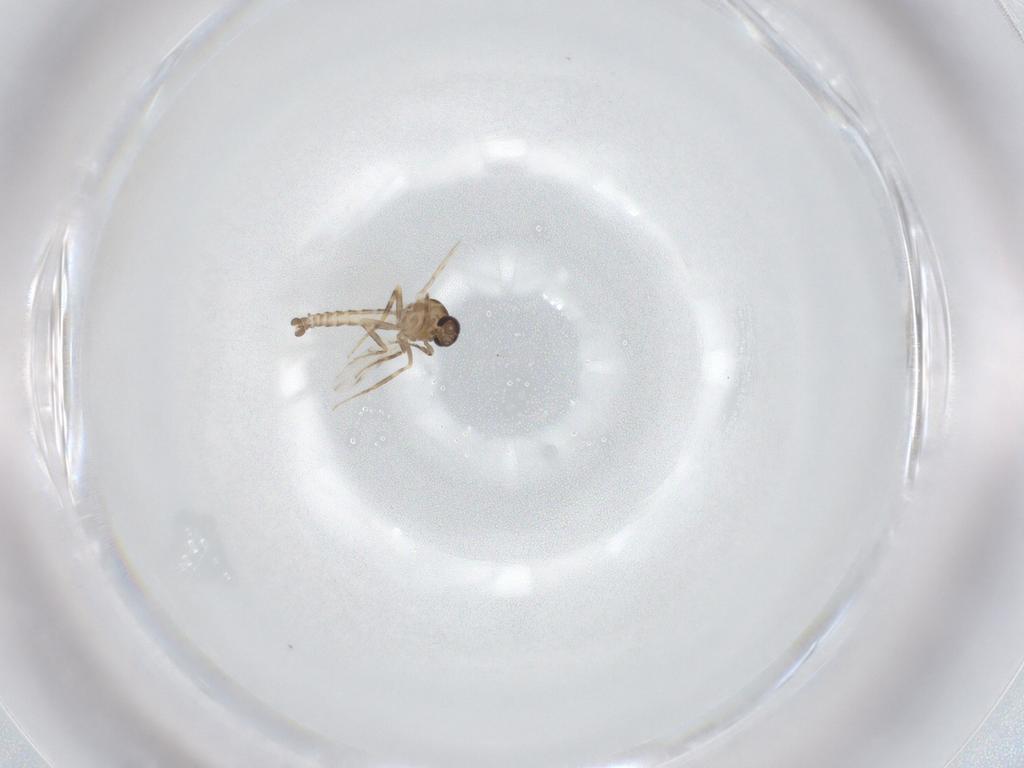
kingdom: Animalia
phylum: Arthropoda
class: Insecta
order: Diptera
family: Ceratopogonidae
